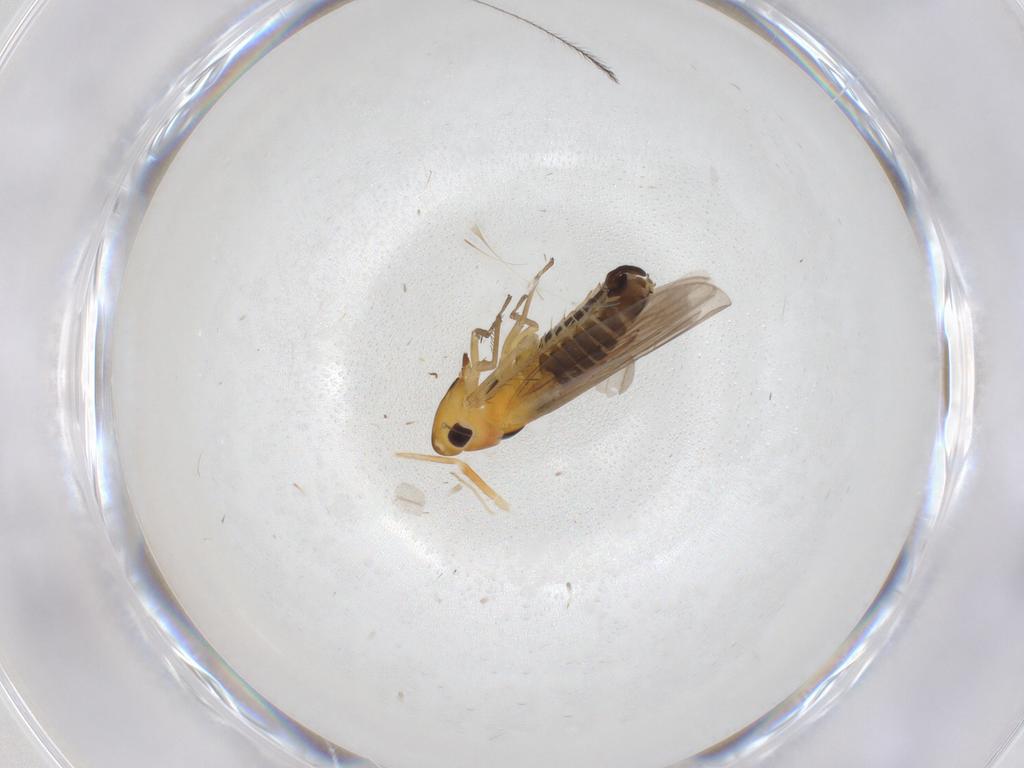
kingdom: Animalia
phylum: Arthropoda
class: Insecta
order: Hemiptera
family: Cicadellidae
